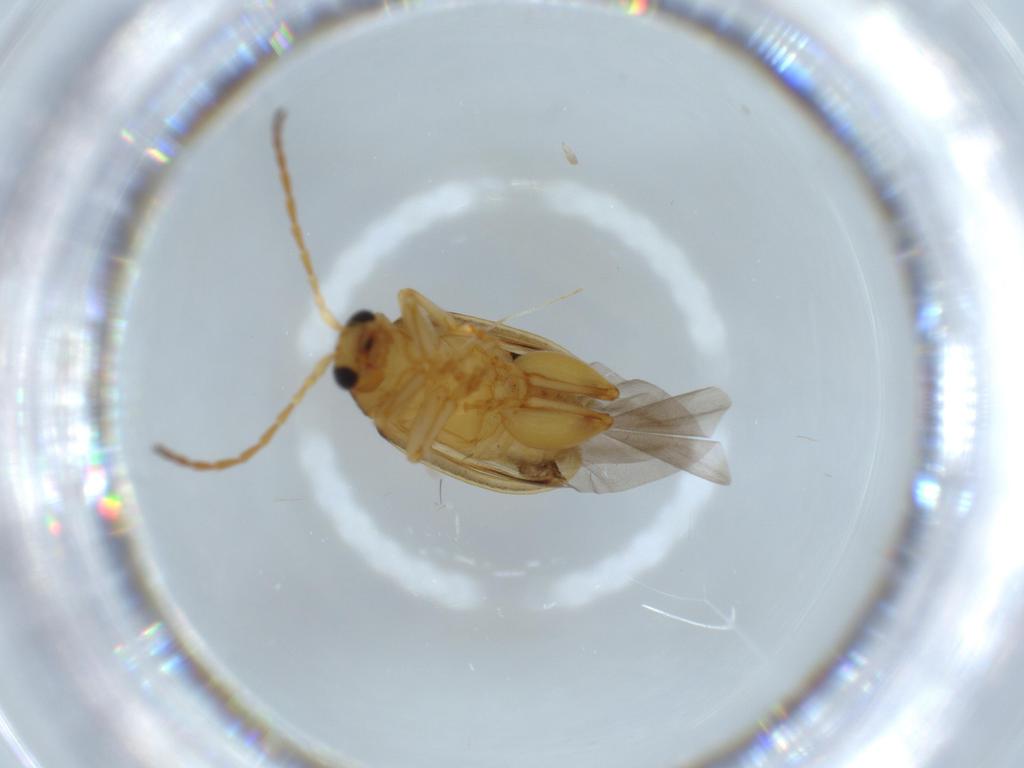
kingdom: Animalia
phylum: Arthropoda
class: Insecta
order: Coleoptera
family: Chrysomelidae
